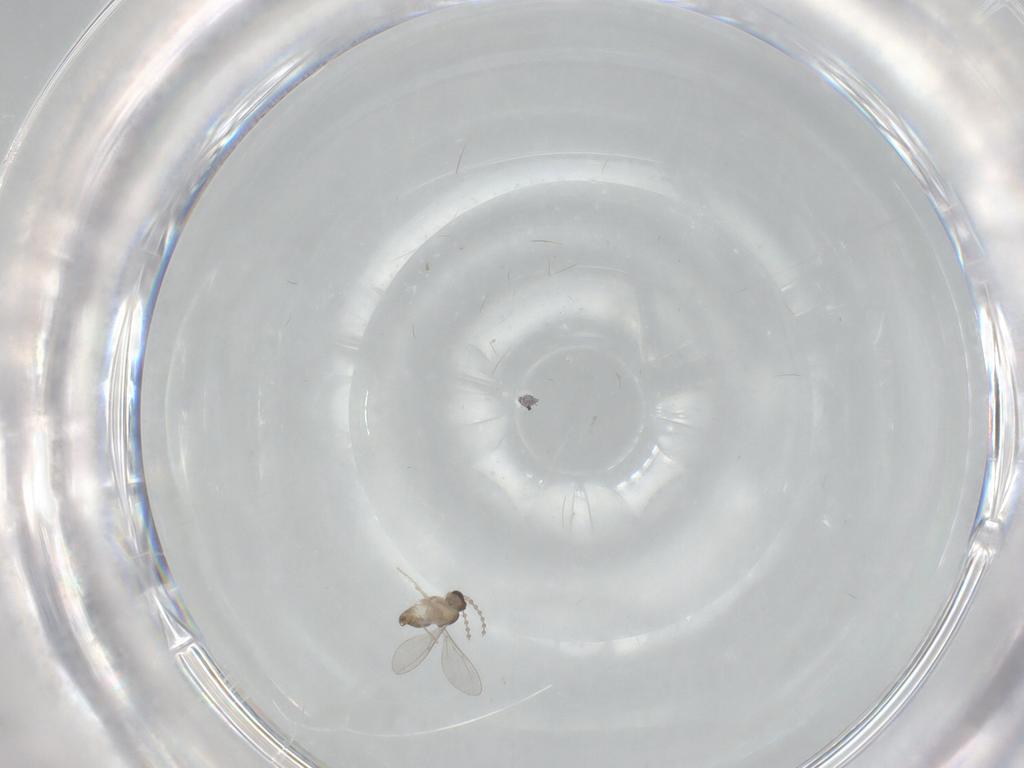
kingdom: Animalia
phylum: Arthropoda
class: Insecta
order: Diptera
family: Cecidomyiidae
